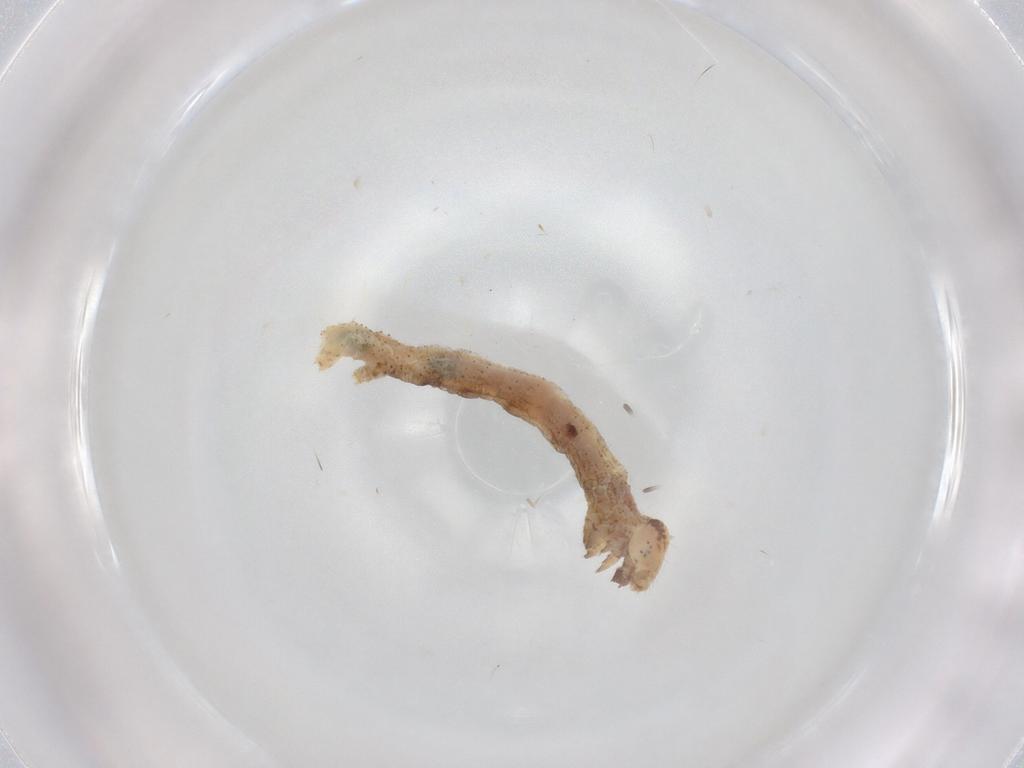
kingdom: Animalia
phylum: Arthropoda
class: Insecta
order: Lepidoptera
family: Geometridae
